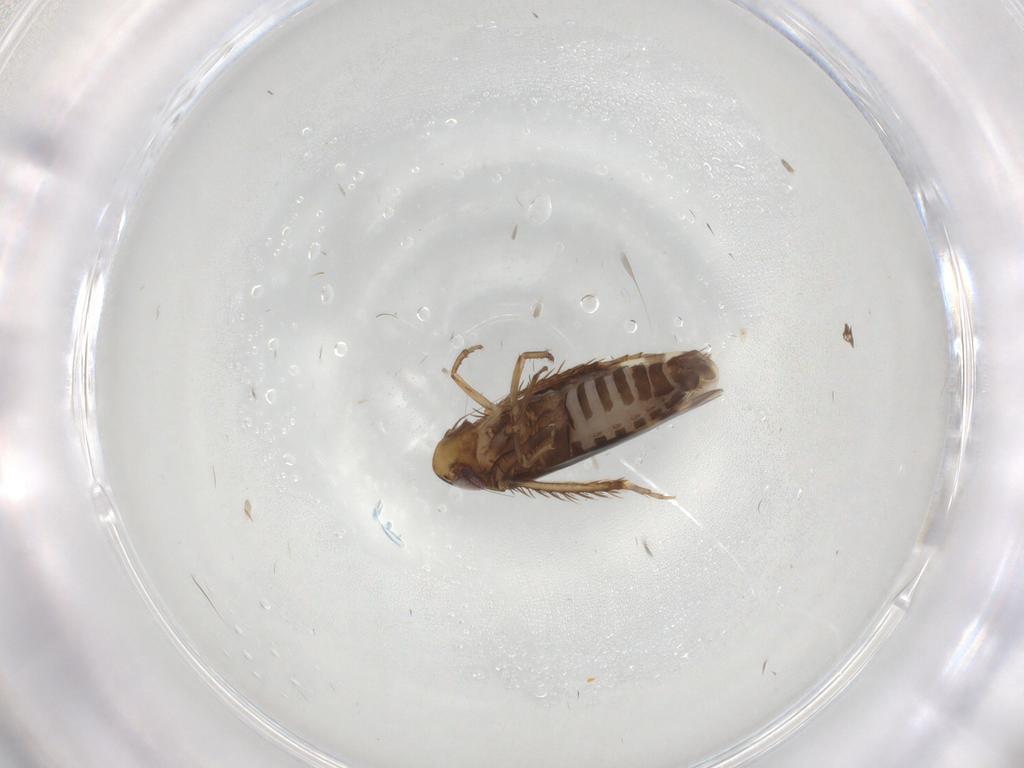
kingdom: Animalia
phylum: Arthropoda
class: Insecta
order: Hemiptera
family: Cicadellidae
